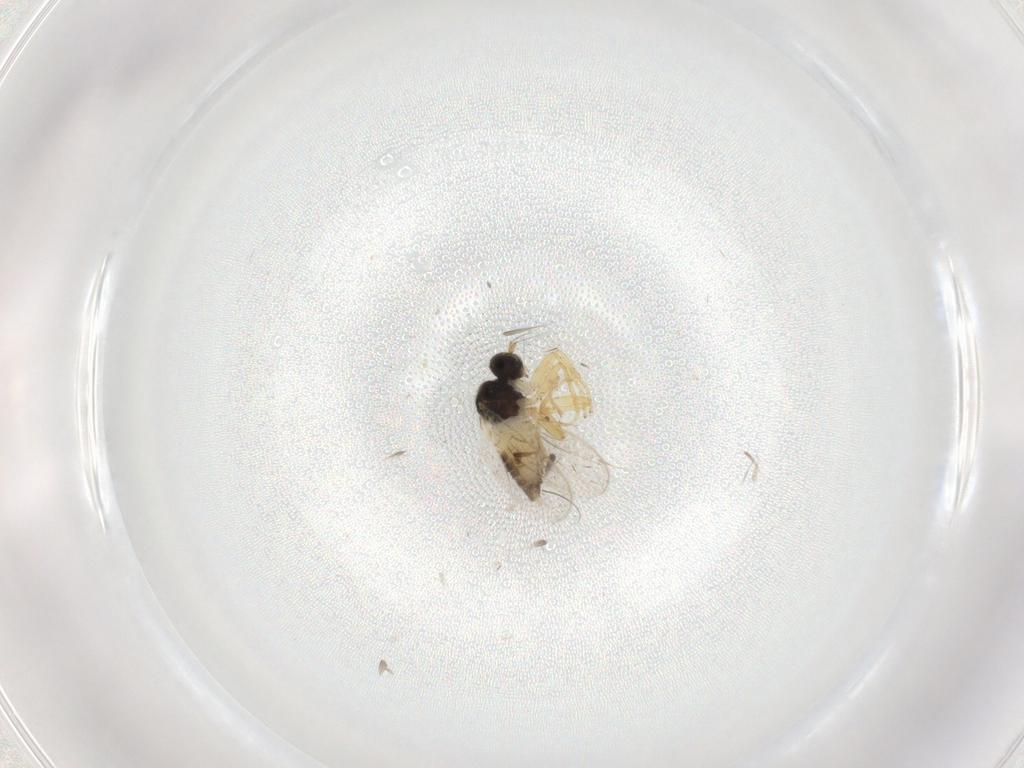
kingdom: Animalia
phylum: Arthropoda
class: Insecta
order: Diptera
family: Hybotidae
